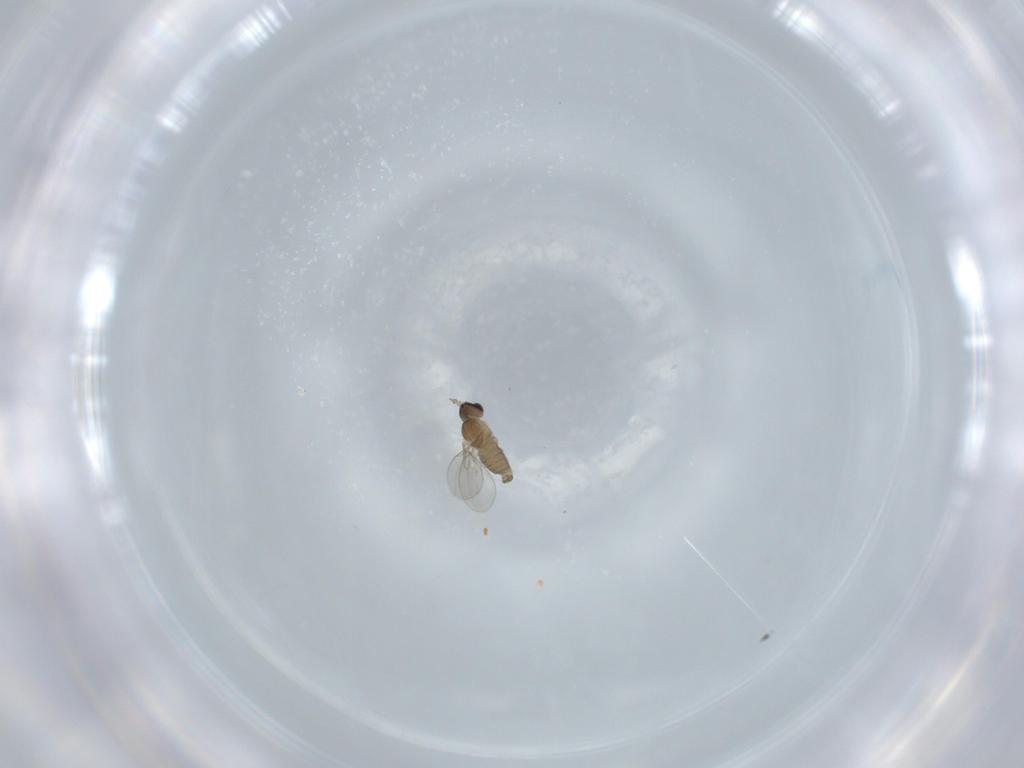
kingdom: Animalia
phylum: Arthropoda
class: Insecta
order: Diptera
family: Cecidomyiidae
